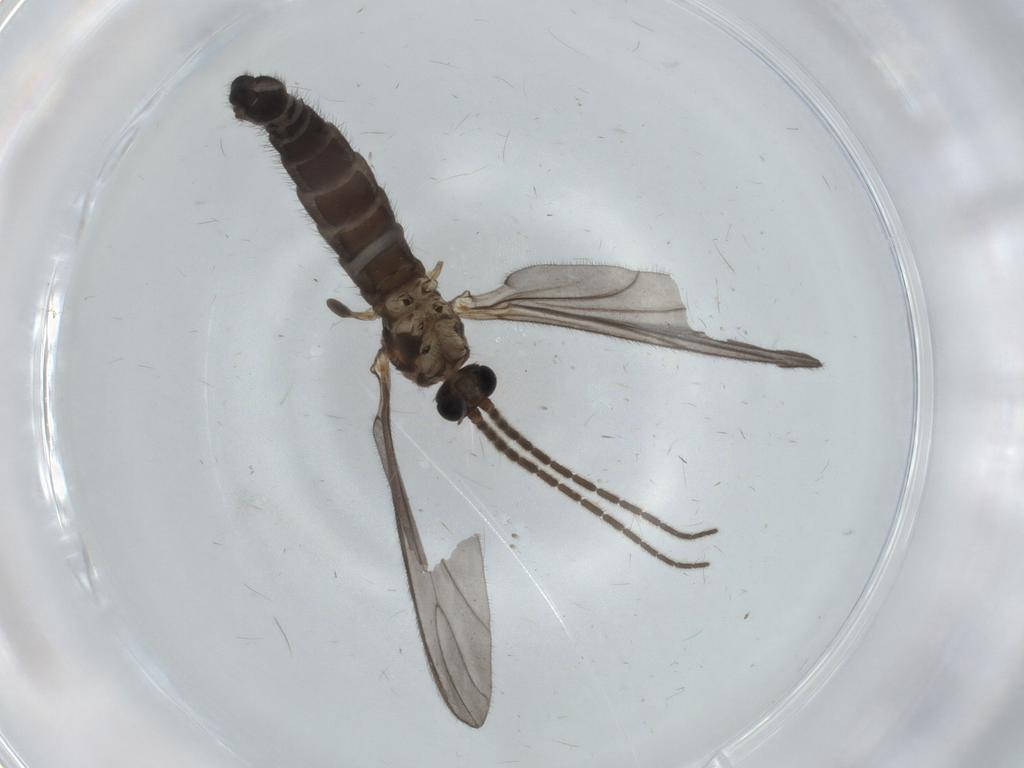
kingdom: Animalia
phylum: Arthropoda
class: Insecta
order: Diptera
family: Sciaridae
